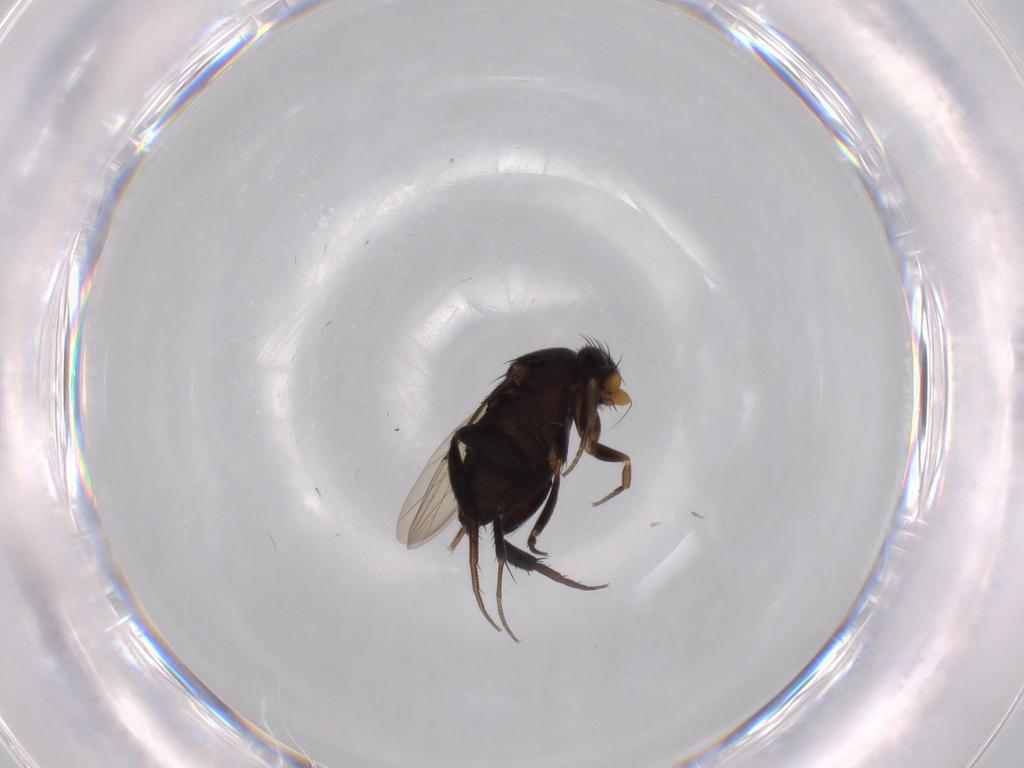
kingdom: Animalia
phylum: Arthropoda
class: Insecta
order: Diptera
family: Phoridae
